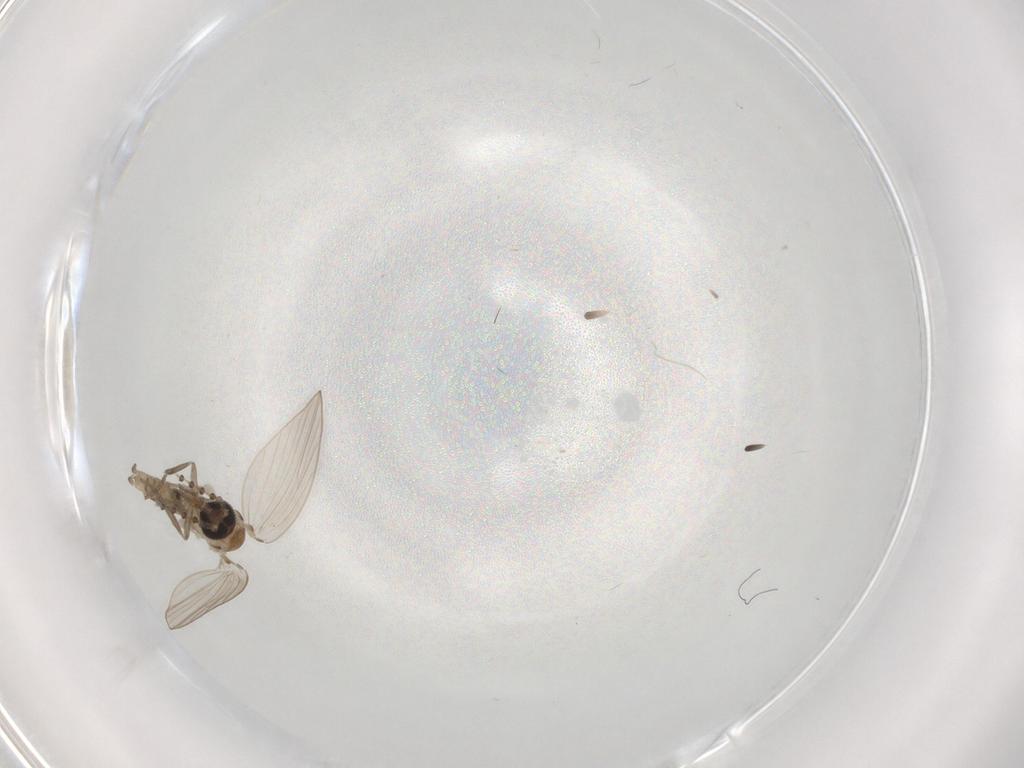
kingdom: Animalia
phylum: Arthropoda
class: Insecta
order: Diptera
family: Psychodidae
